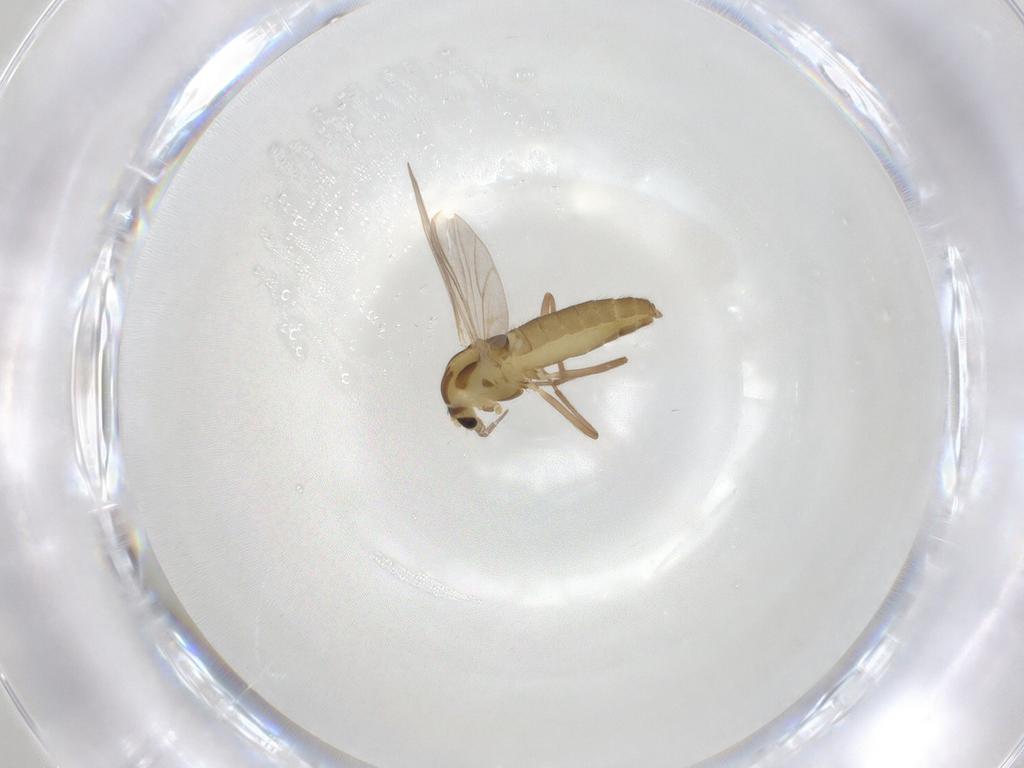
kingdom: Animalia
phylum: Arthropoda
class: Insecta
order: Diptera
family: Chironomidae
